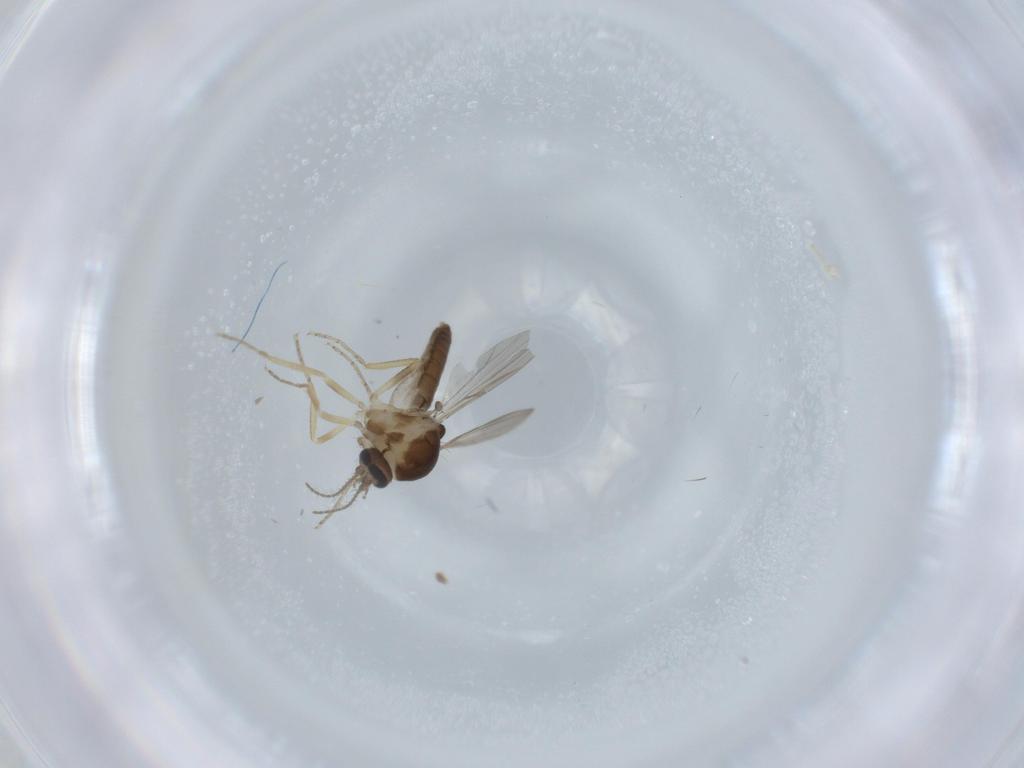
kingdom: Animalia
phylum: Arthropoda
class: Insecta
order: Diptera
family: Ceratopogonidae
